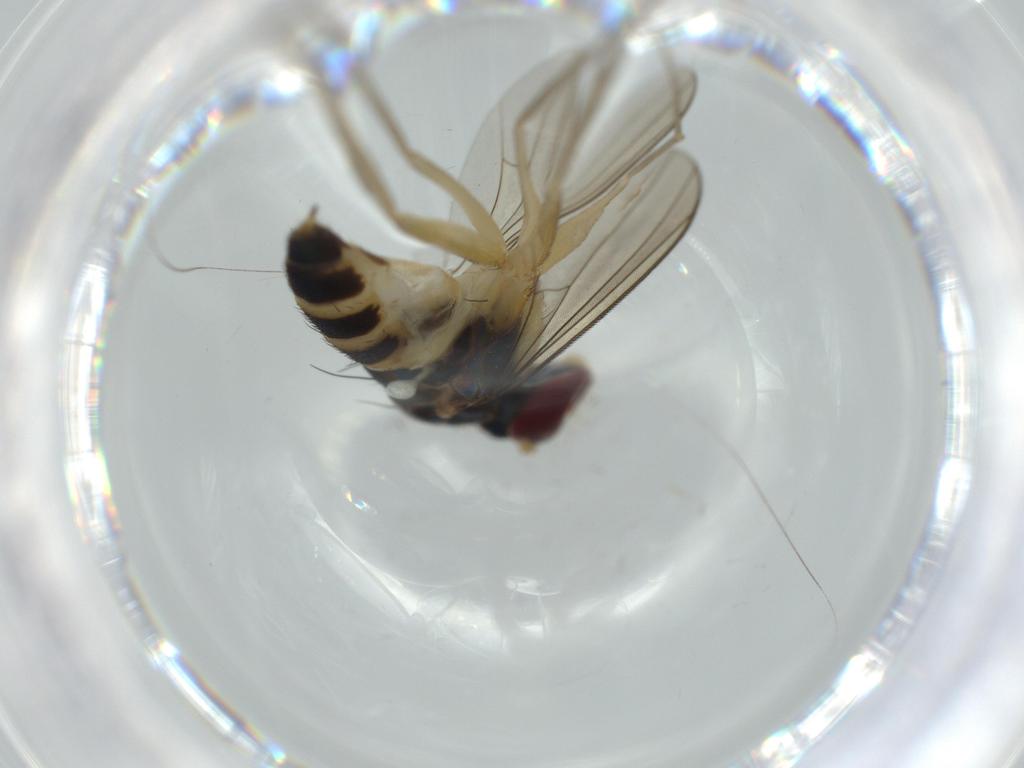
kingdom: Animalia
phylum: Arthropoda
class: Insecta
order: Diptera
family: Dolichopodidae
